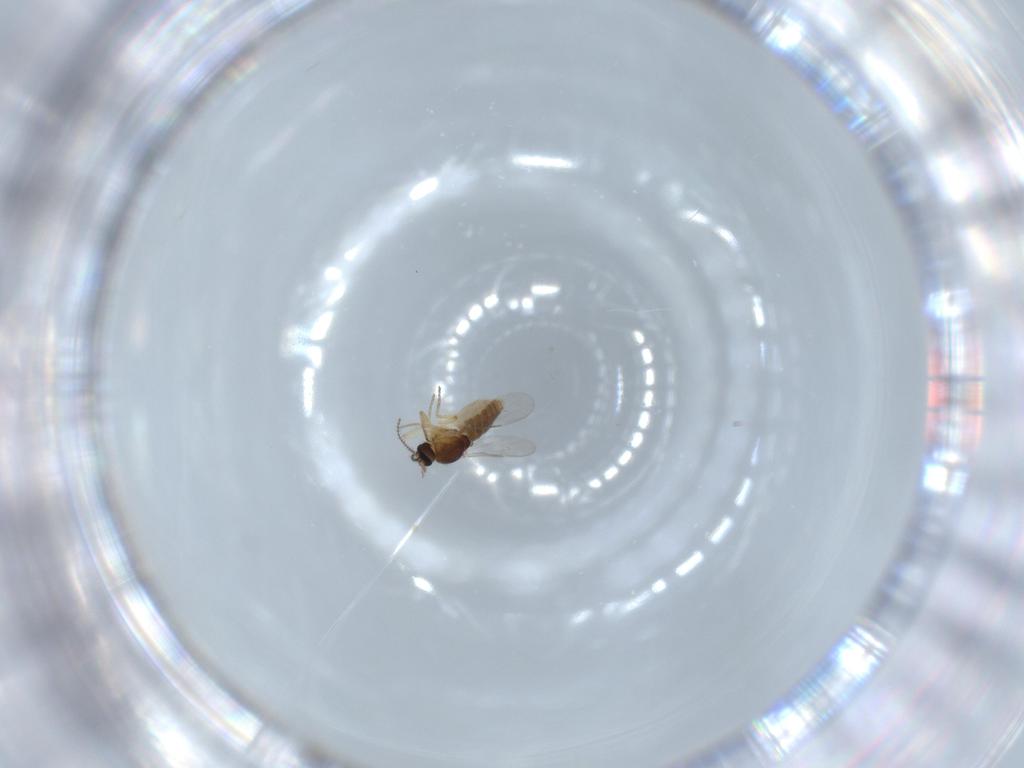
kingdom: Animalia
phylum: Arthropoda
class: Insecta
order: Diptera
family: Ceratopogonidae
